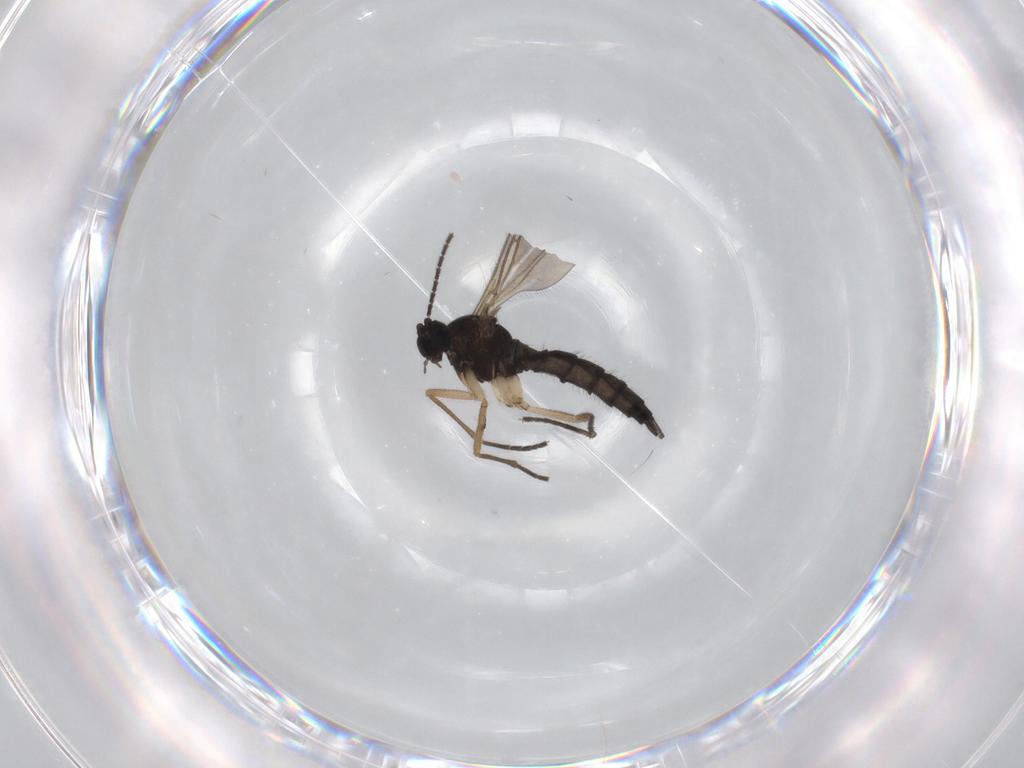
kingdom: Animalia
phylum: Arthropoda
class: Insecta
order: Diptera
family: Sciaridae
